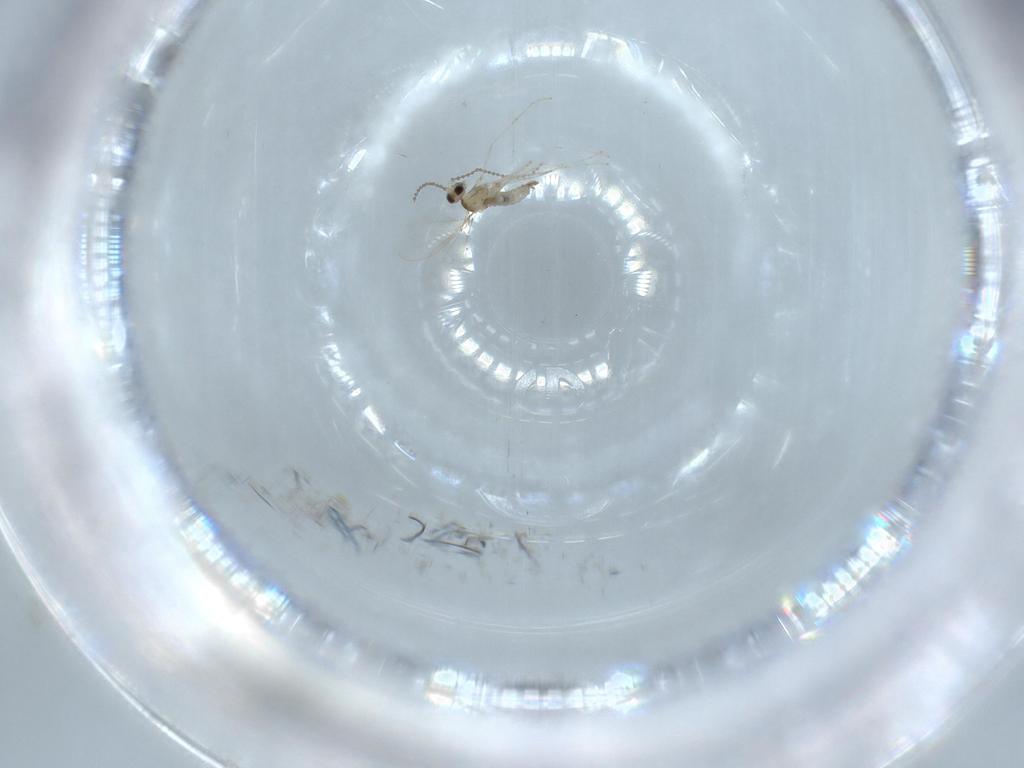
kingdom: Animalia
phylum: Arthropoda
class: Insecta
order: Diptera
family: Cecidomyiidae
